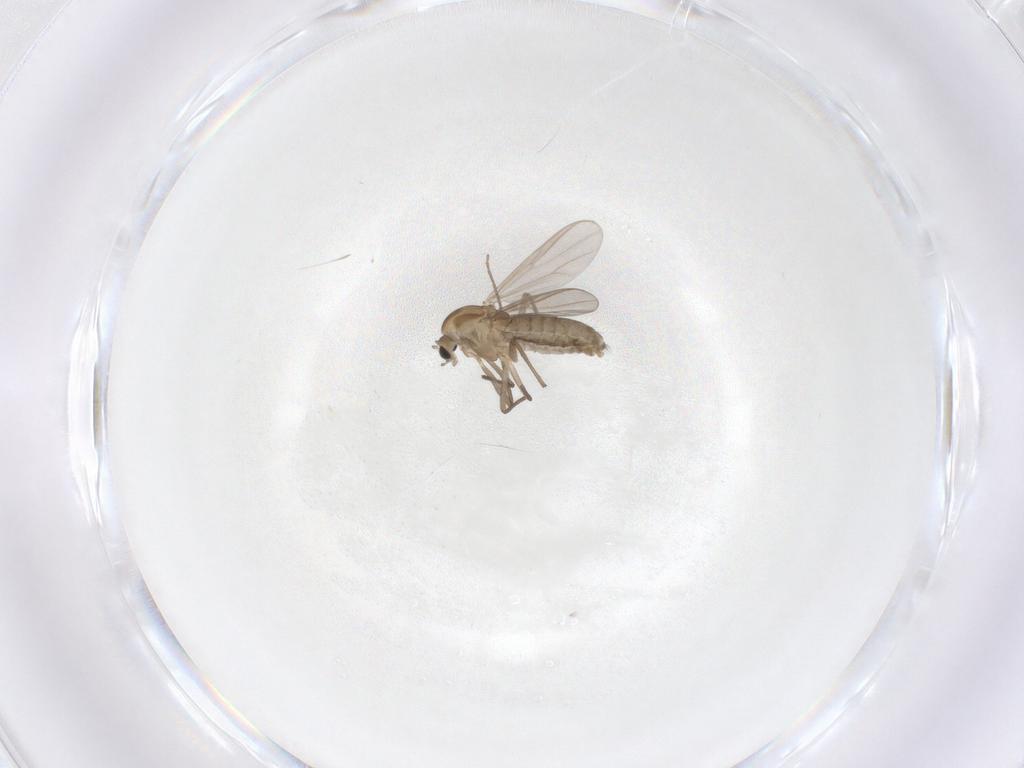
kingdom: Animalia
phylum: Arthropoda
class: Insecta
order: Diptera
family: Chironomidae
